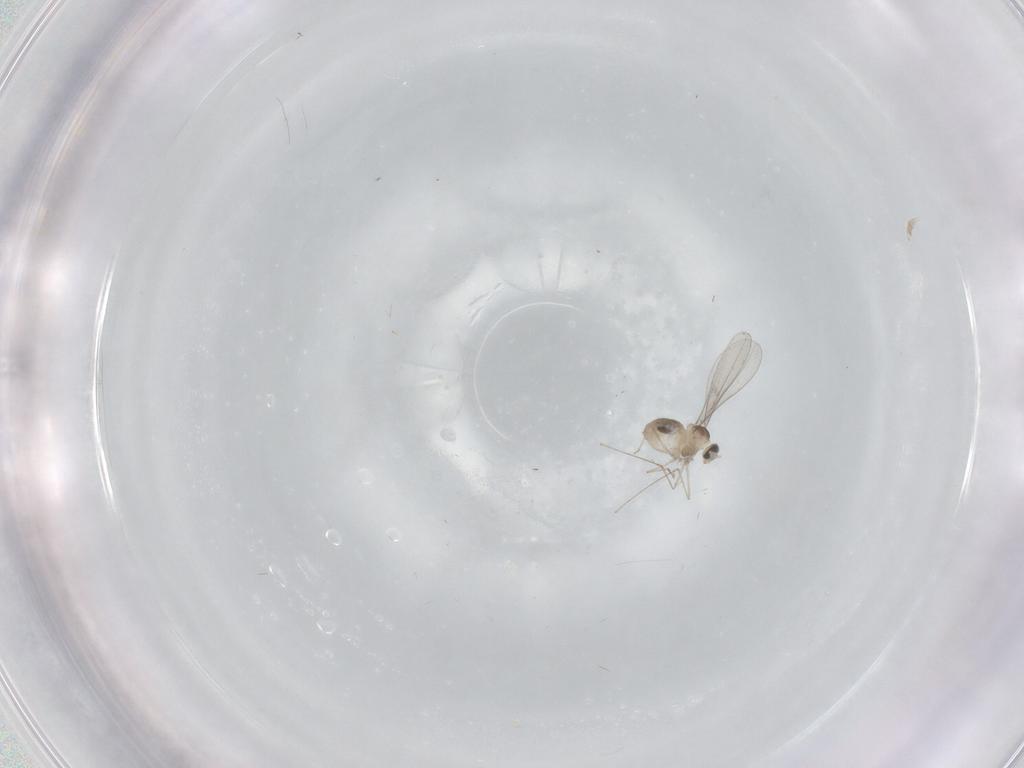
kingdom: Animalia
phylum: Arthropoda
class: Insecta
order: Diptera
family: Cecidomyiidae
